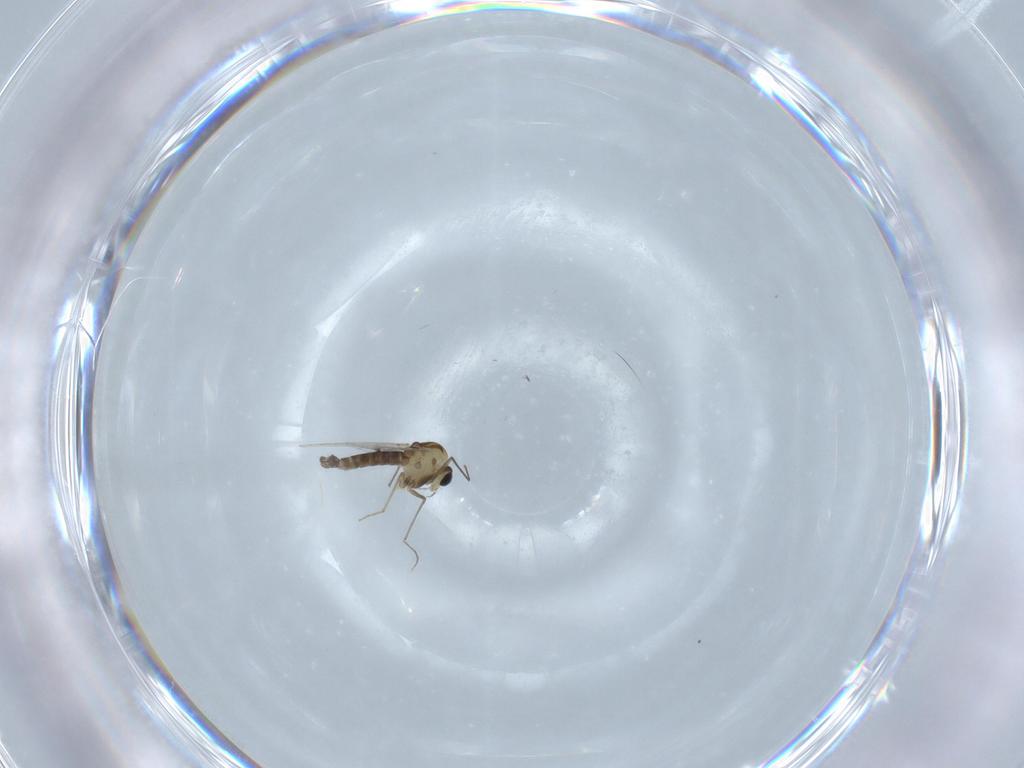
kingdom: Animalia
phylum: Arthropoda
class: Insecta
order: Diptera
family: Chironomidae
